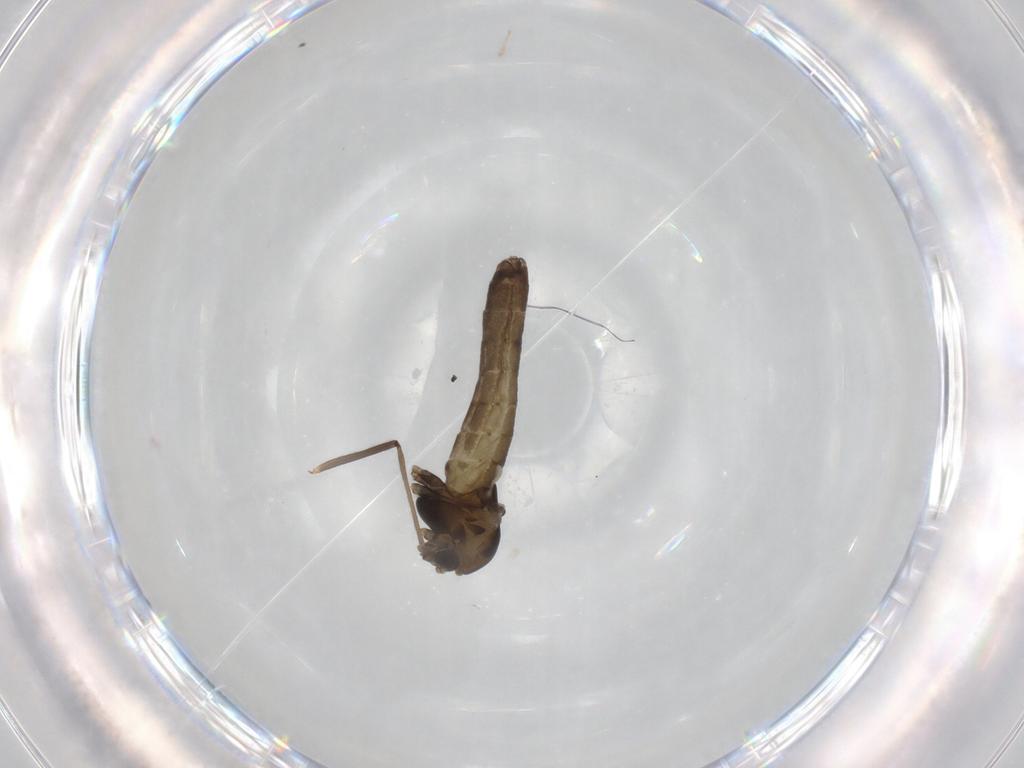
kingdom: Animalia
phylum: Arthropoda
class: Insecta
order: Diptera
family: Chironomidae
